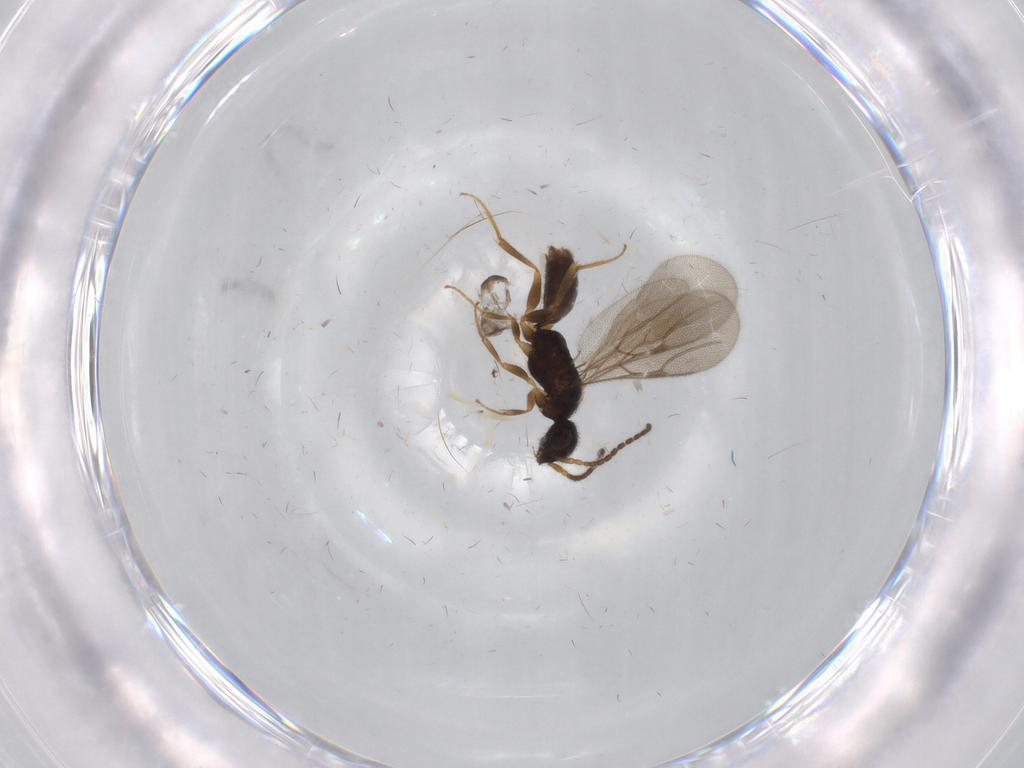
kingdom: Animalia
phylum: Arthropoda
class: Insecta
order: Hymenoptera
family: Bethylidae
